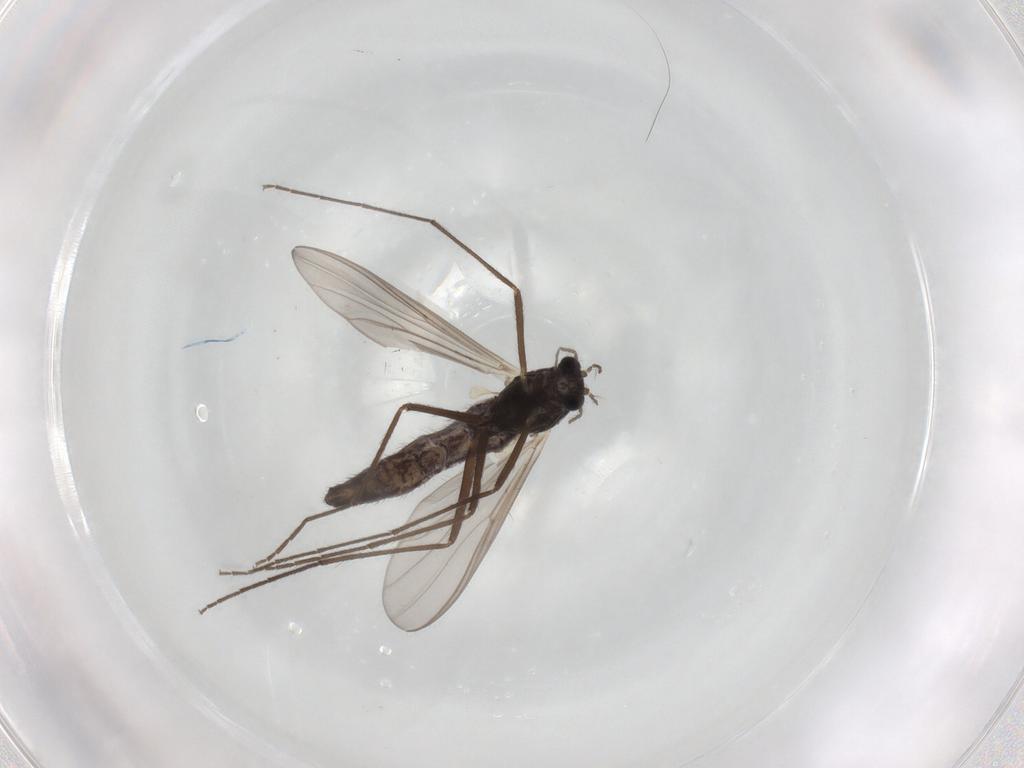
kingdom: Animalia
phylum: Arthropoda
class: Insecta
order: Diptera
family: Chironomidae
